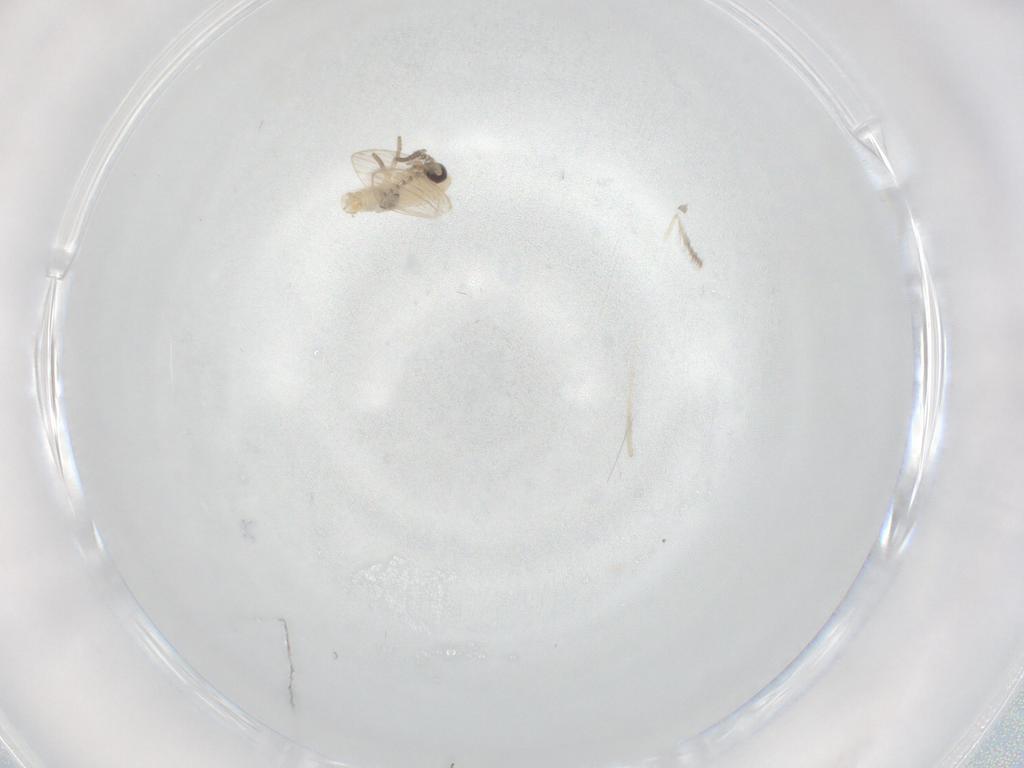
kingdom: Animalia
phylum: Arthropoda
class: Insecta
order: Diptera
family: Psychodidae
